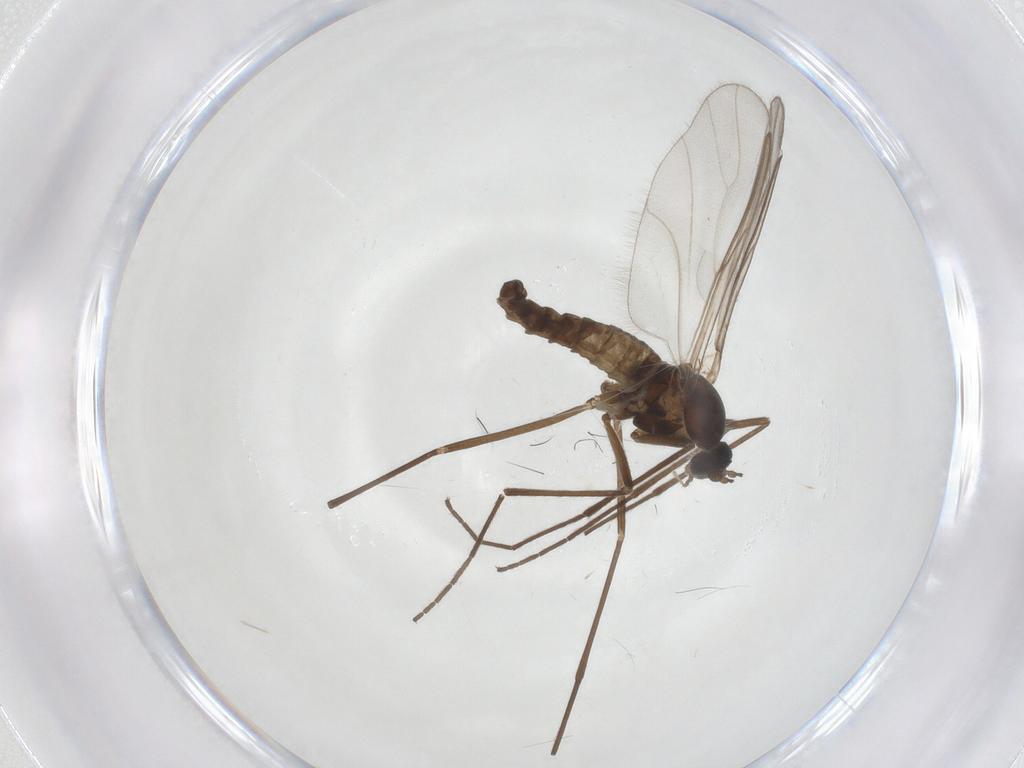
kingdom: Animalia
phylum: Arthropoda
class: Insecta
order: Diptera
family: Cecidomyiidae
